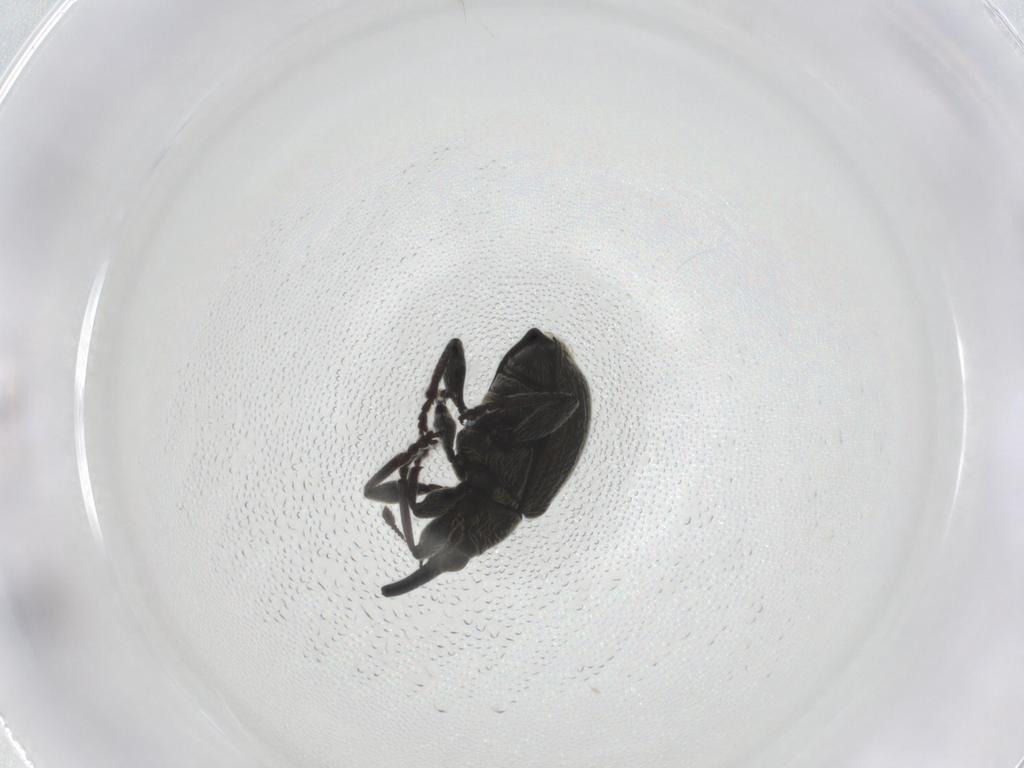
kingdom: Animalia
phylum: Arthropoda
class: Insecta
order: Coleoptera
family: Brentidae
